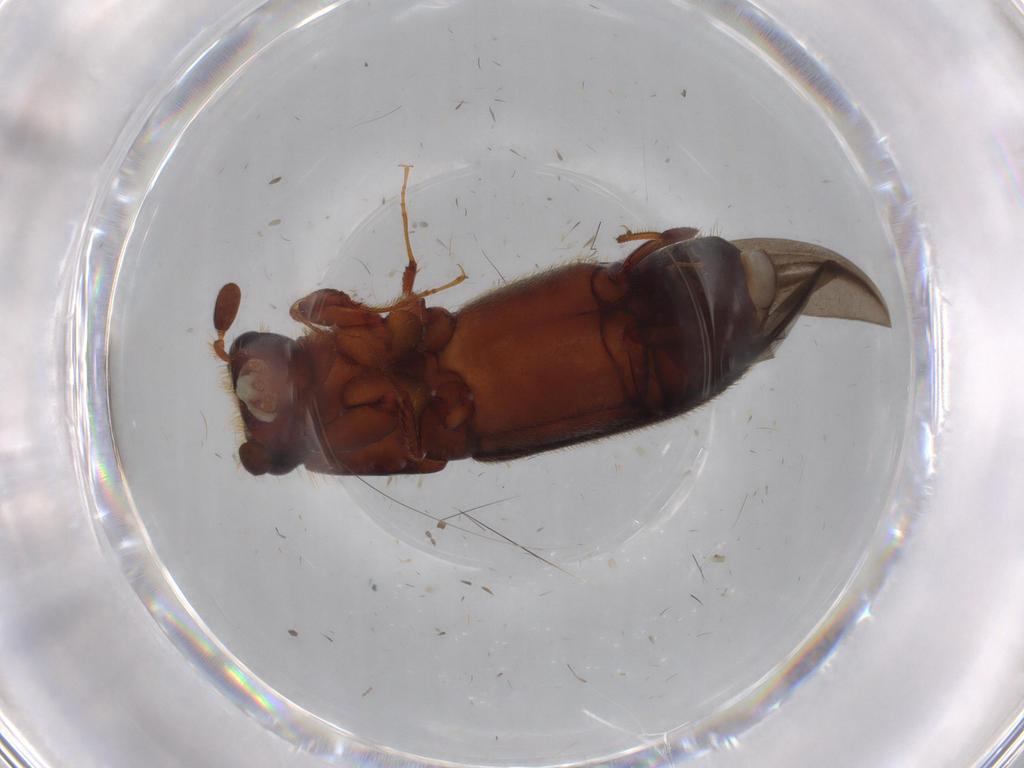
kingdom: Animalia
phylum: Arthropoda
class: Insecta
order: Coleoptera
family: Curculionidae
